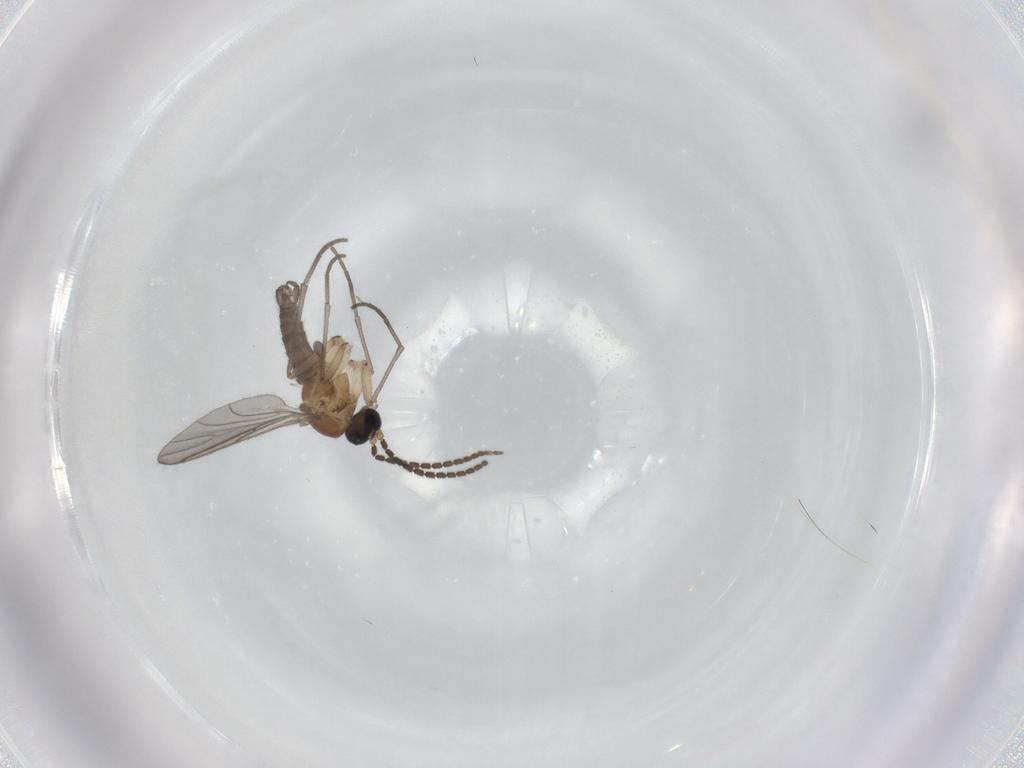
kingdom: Animalia
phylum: Arthropoda
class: Insecta
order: Diptera
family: Sciaridae
